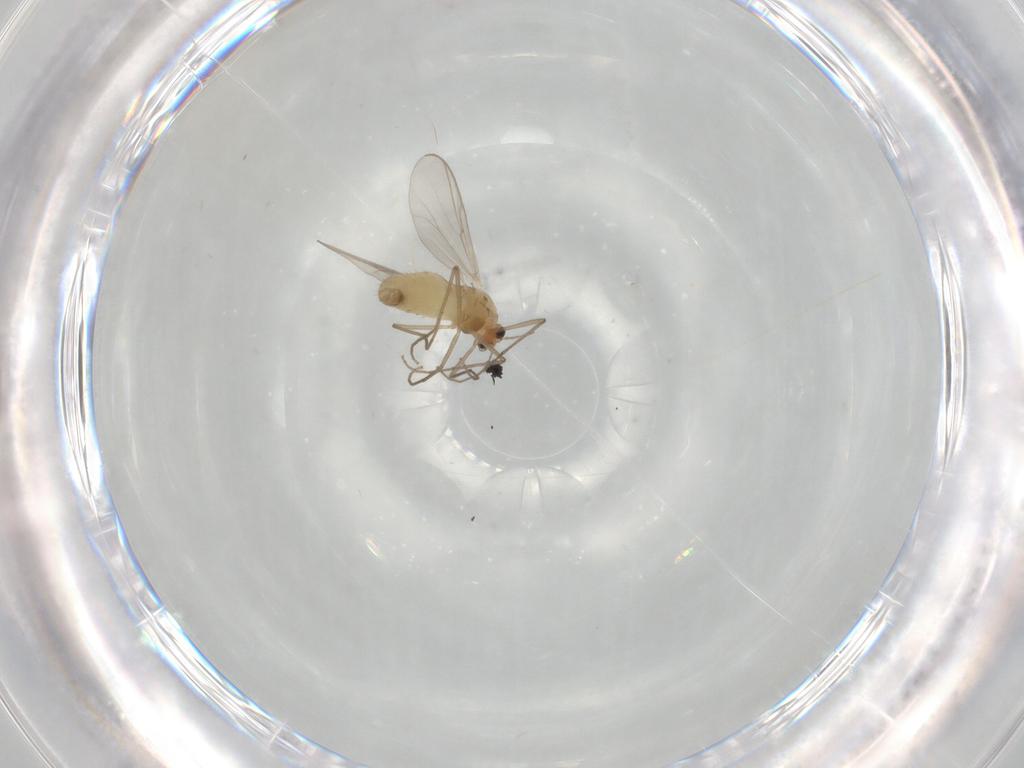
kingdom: Animalia
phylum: Arthropoda
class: Insecta
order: Diptera
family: Chironomidae
